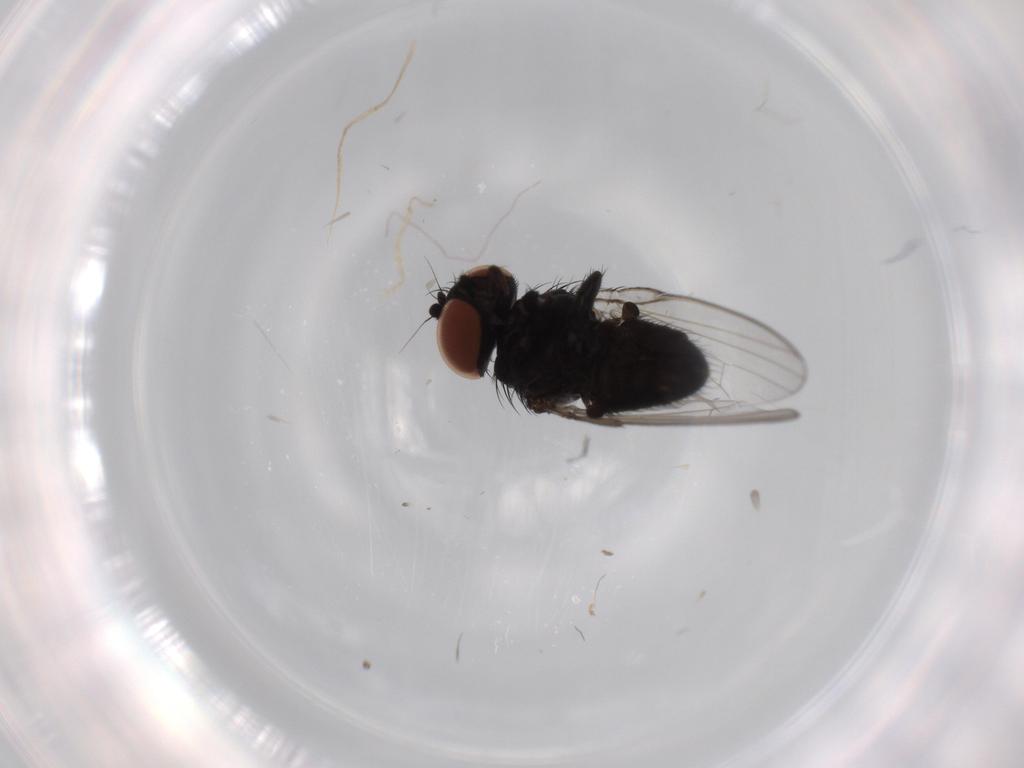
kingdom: Animalia
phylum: Arthropoda
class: Insecta
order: Diptera
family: Milichiidae
